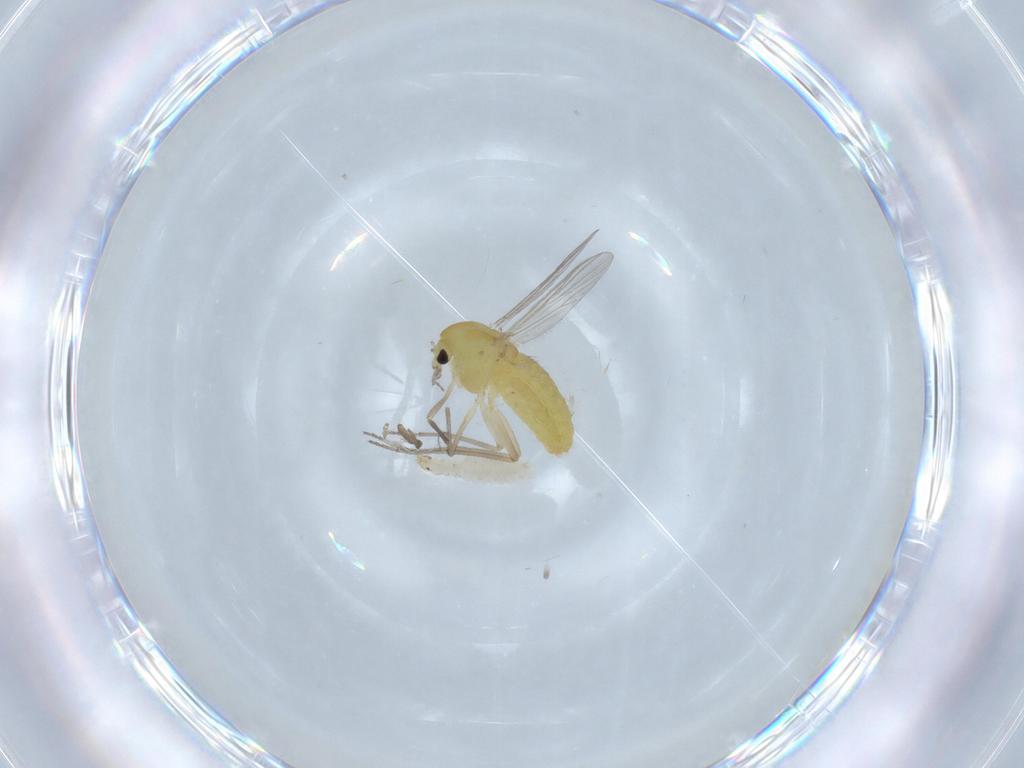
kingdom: Animalia
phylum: Arthropoda
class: Insecta
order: Diptera
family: Chironomidae
